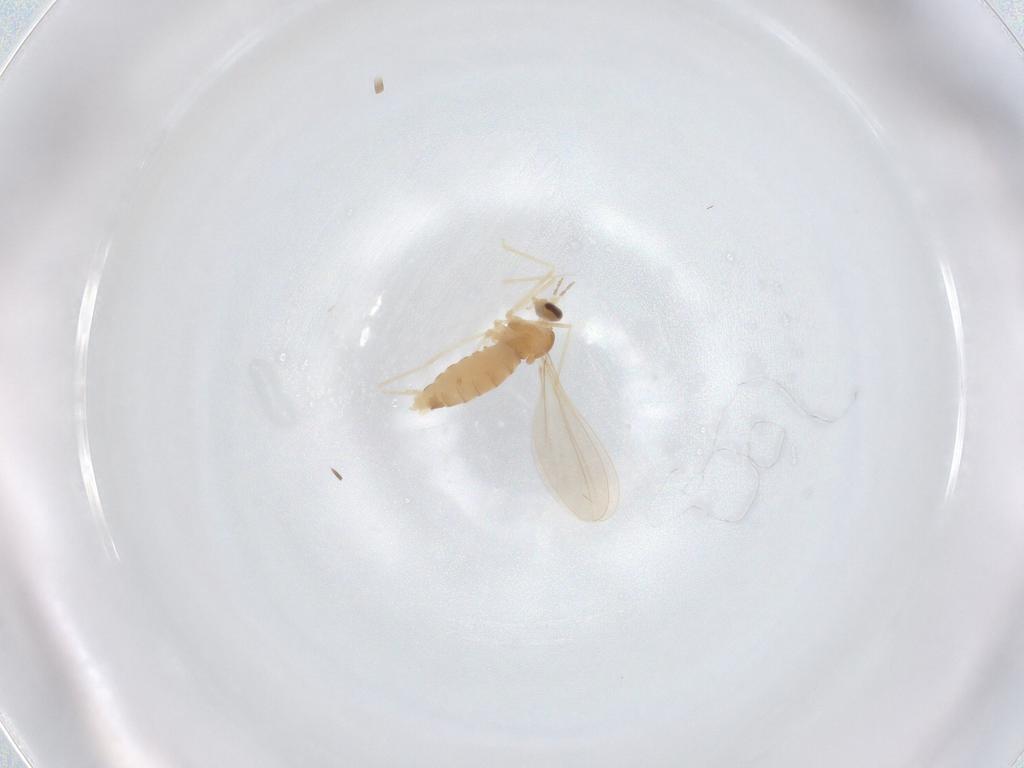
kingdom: Animalia
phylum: Arthropoda
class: Insecta
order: Diptera
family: Cecidomyiidae
